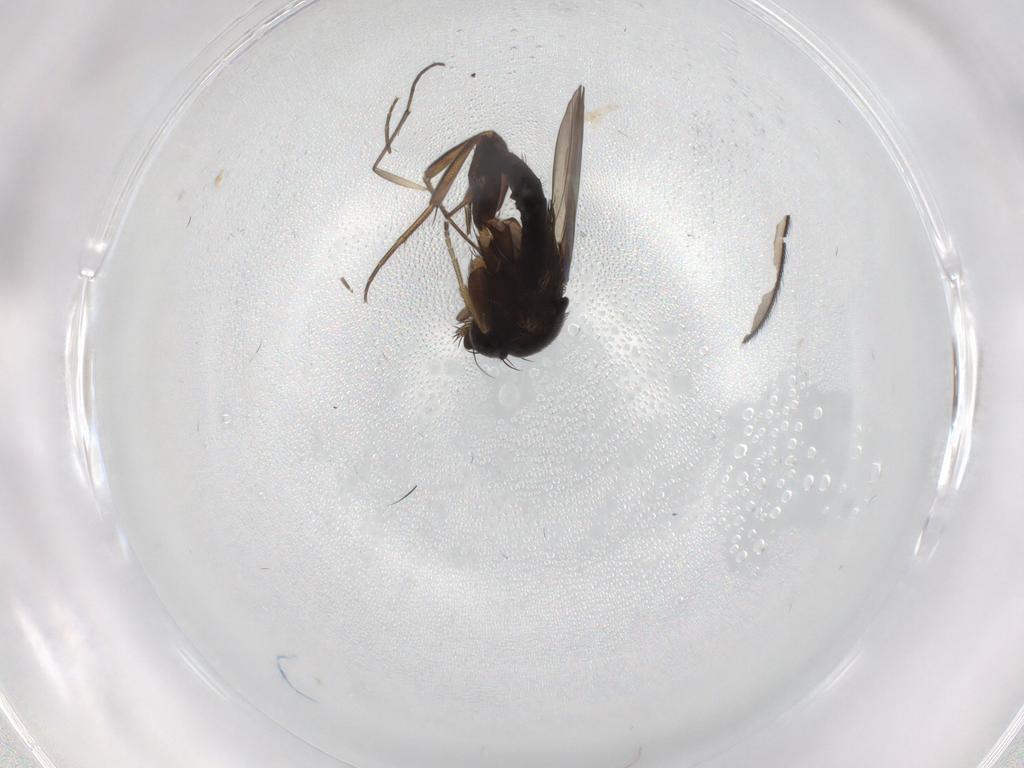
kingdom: Animalia
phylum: Arthropoda
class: Insecta
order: Diptera
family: Phoridae
